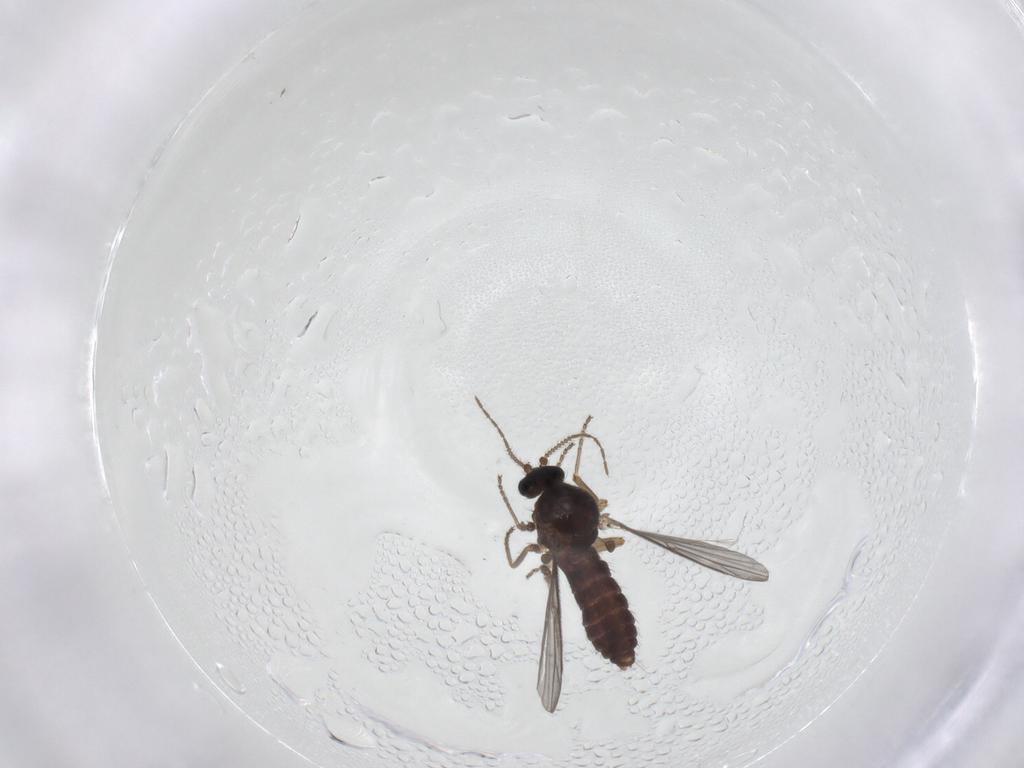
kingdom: Animalia
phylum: Arthropoda
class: Insecta
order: Diptera
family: Ceratopogonidae
